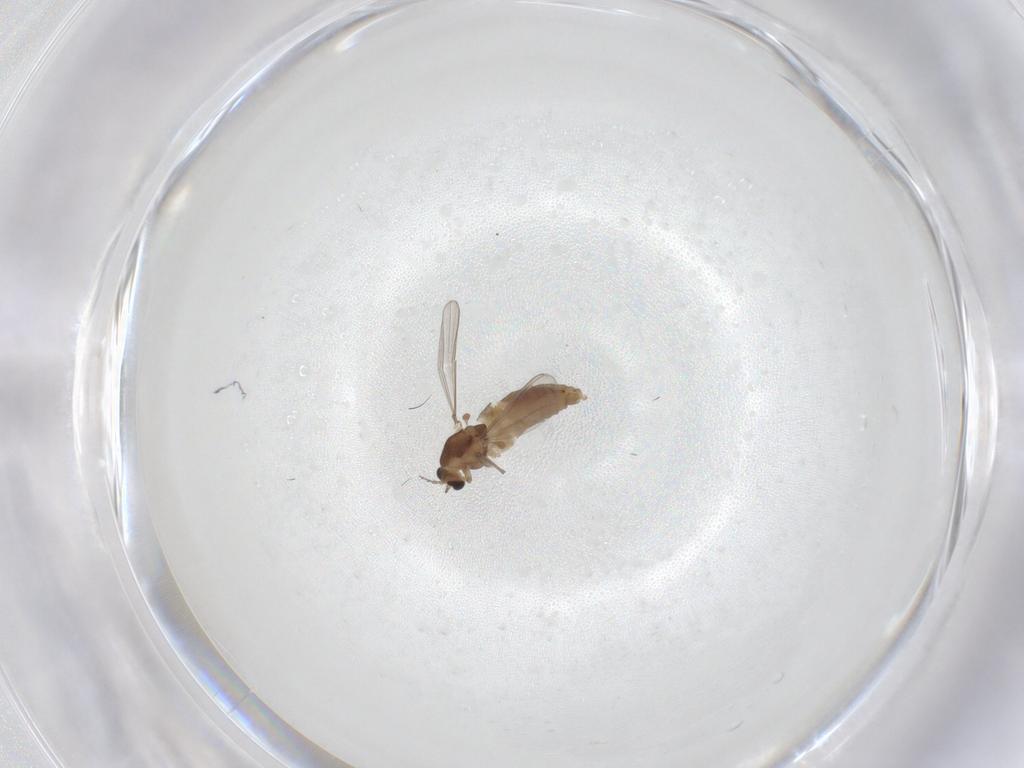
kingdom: Animalia
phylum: Arthropoda
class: Insecta
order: Diptera
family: Chironomidae
